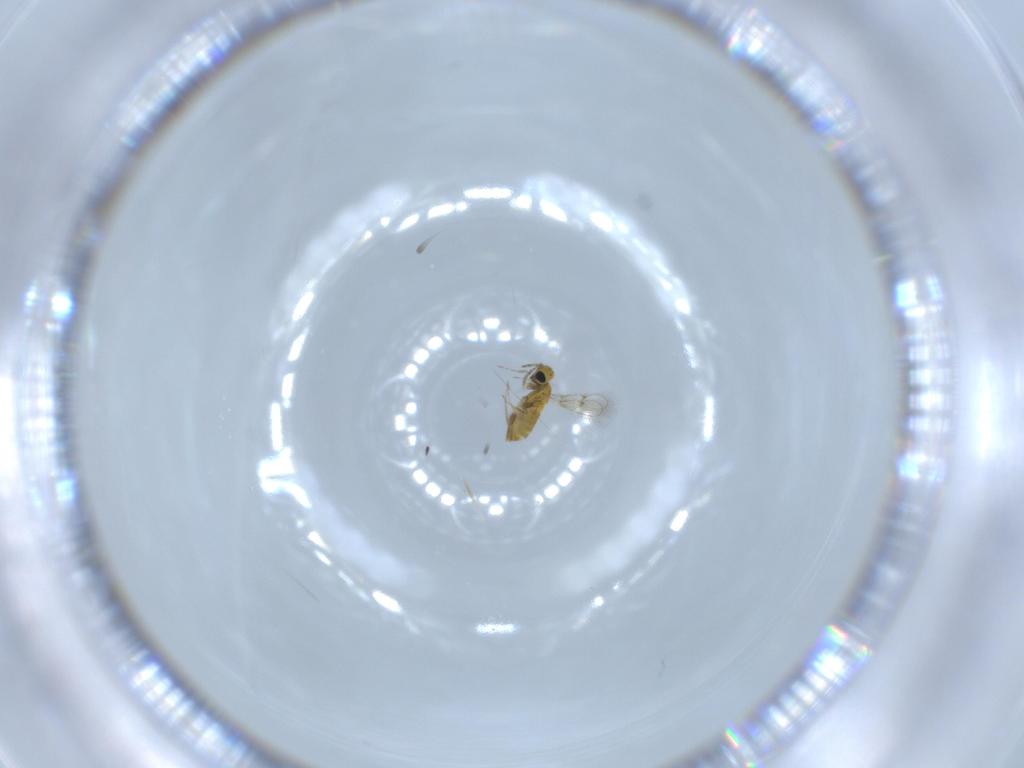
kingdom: Animalia
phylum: Arthropoda
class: Insecta
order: Hymenoptera
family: Trichogrammatidae
